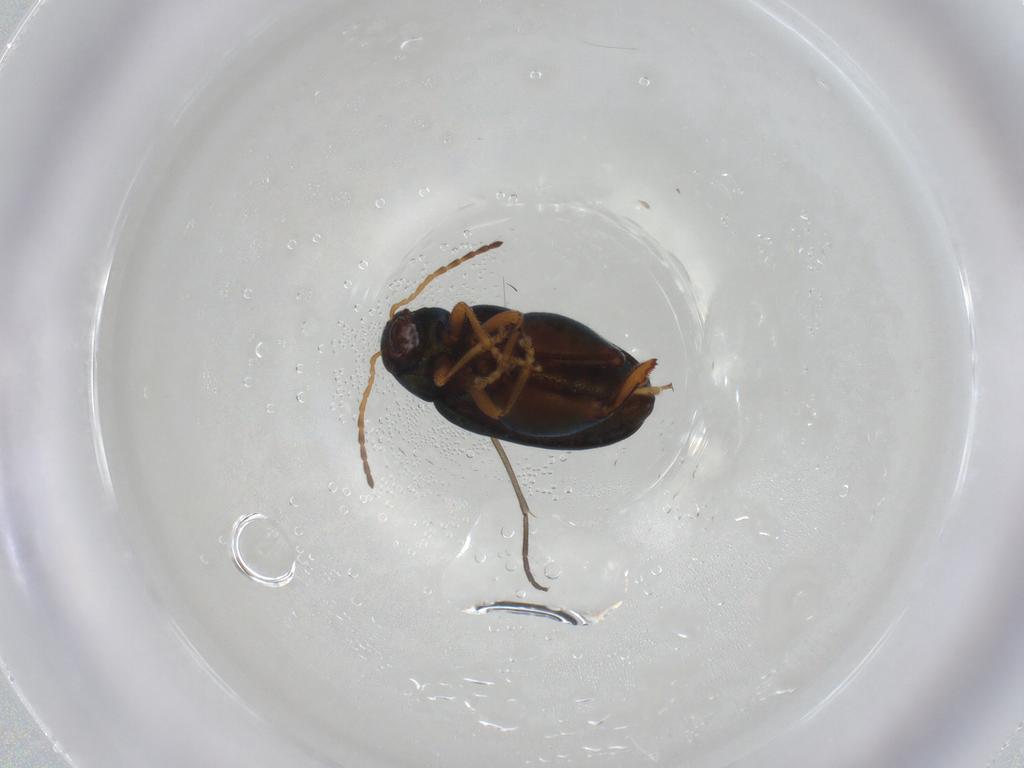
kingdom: Animalia
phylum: Arthropoda
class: Insecta
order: Coleoptera
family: Chrysomelidae
